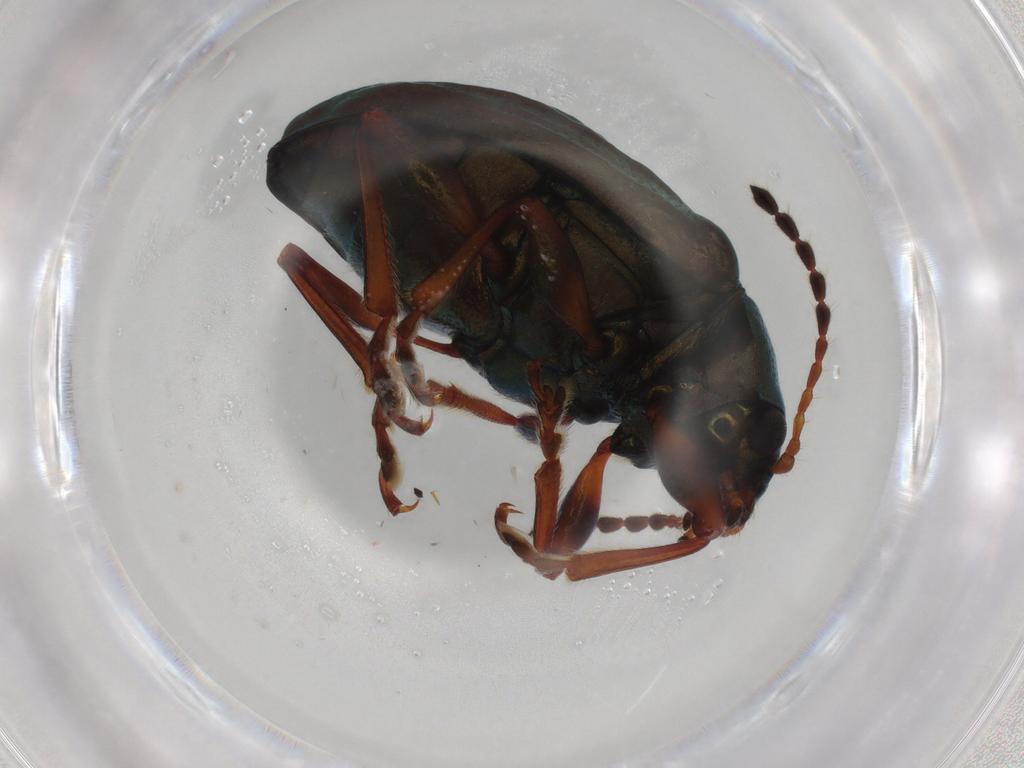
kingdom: Animalia
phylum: Arthropoda
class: Insecta
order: Coleoptera
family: Chrysomelidae
